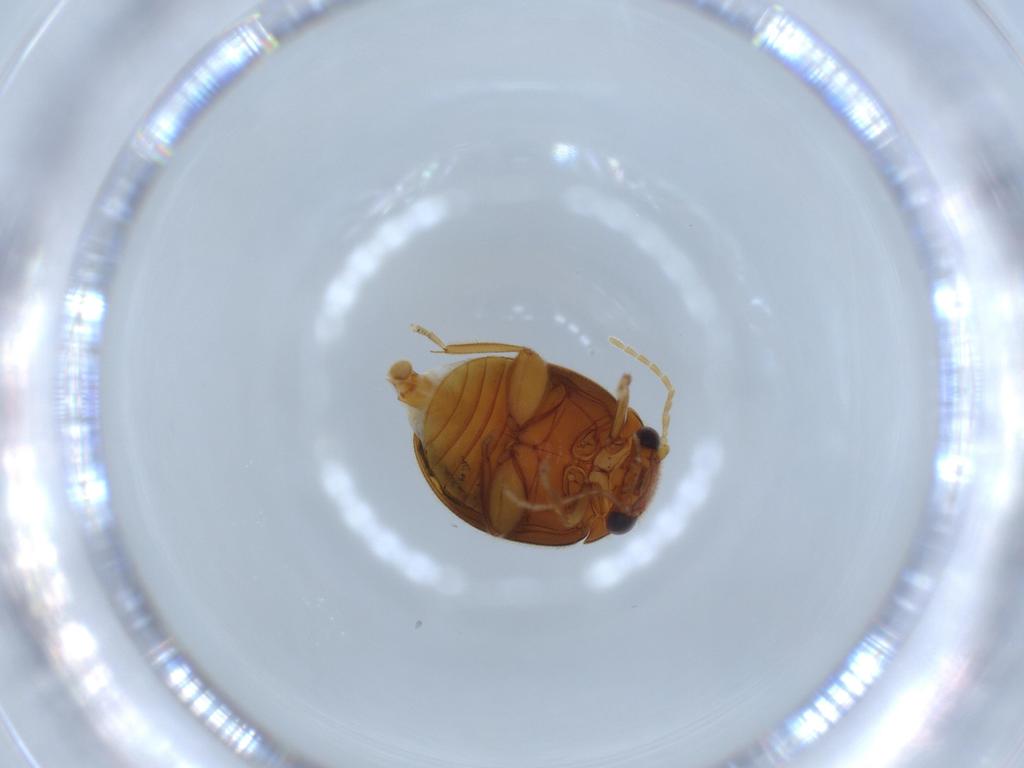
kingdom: Animalia
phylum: Arthropoda
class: Insecta
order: Coleoptera
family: Scirtidae
